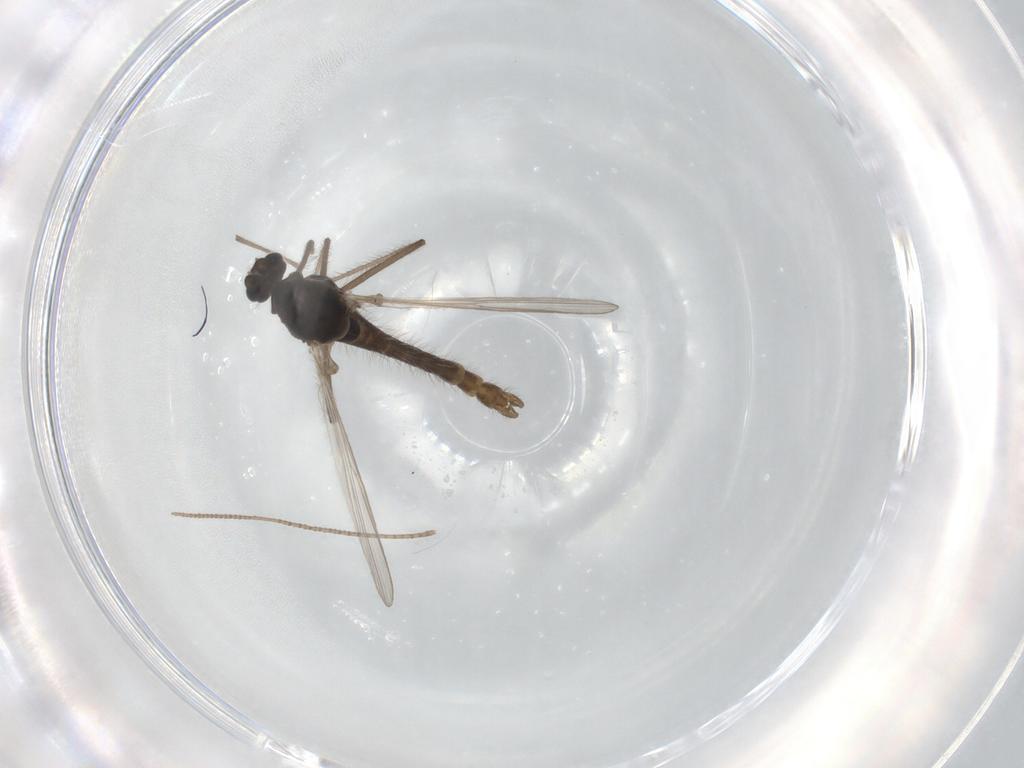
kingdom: Animalia
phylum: Arthropoda
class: Insecta
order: Diptera
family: Chironomidae
